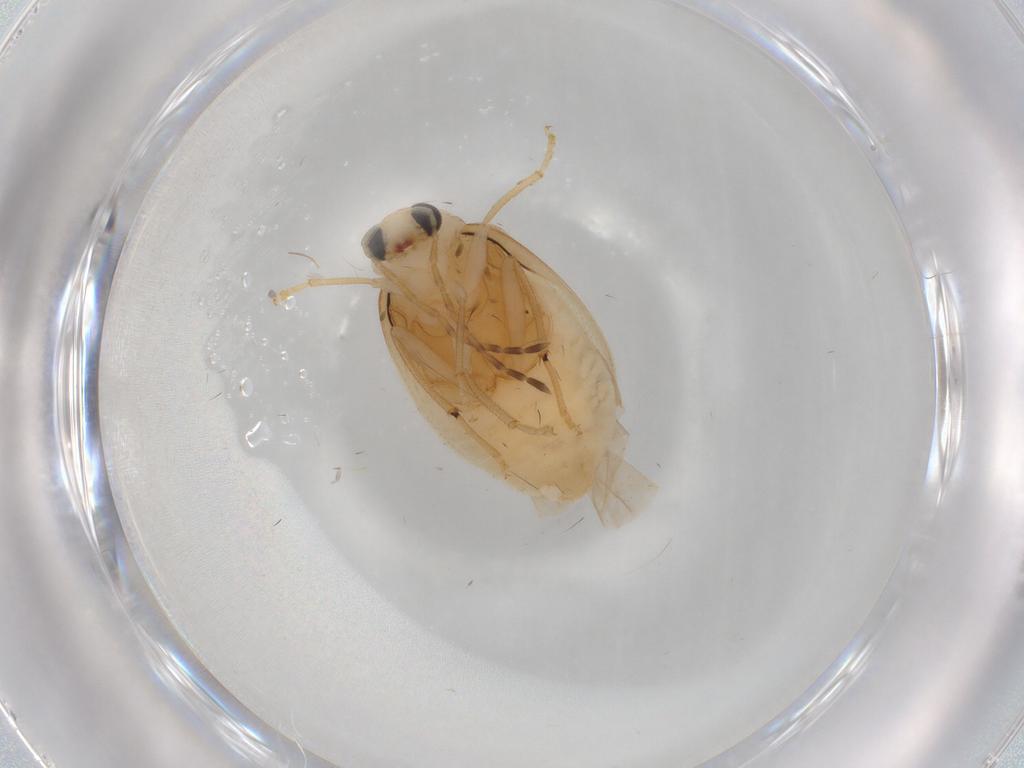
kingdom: Animalia
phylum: Arthropoda
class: Insecta
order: Coleoptera
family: Chrysomelidae
